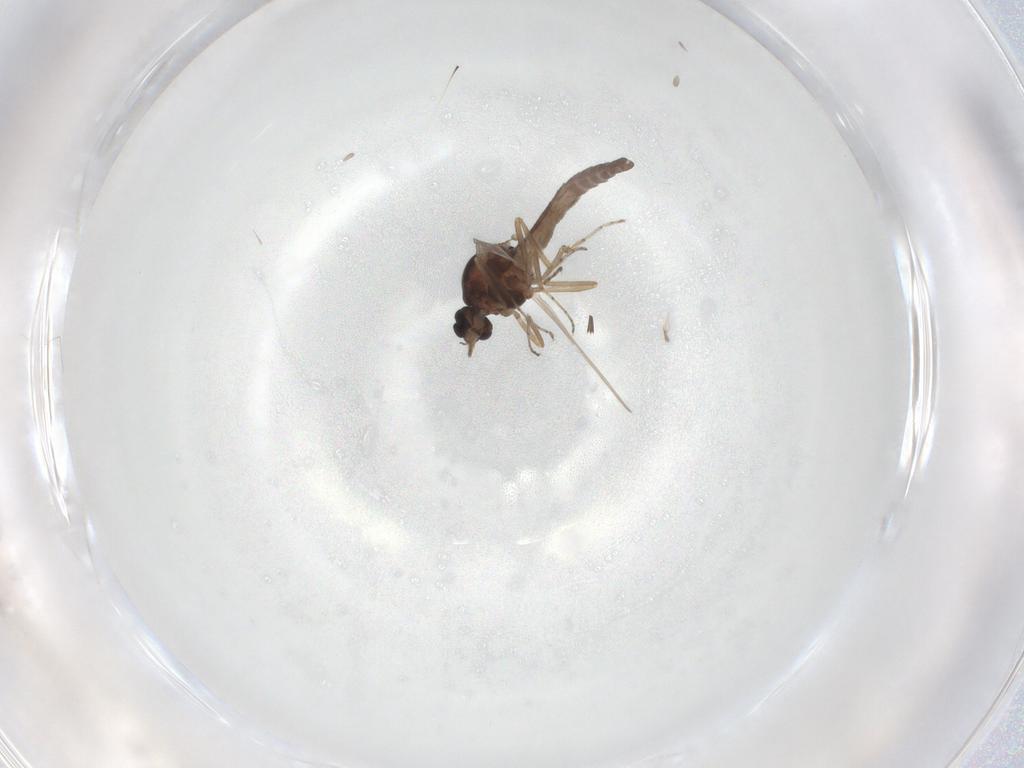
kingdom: Animalia
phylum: Arthropoda
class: Insecta
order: Diptera
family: Ceratopogonidae
